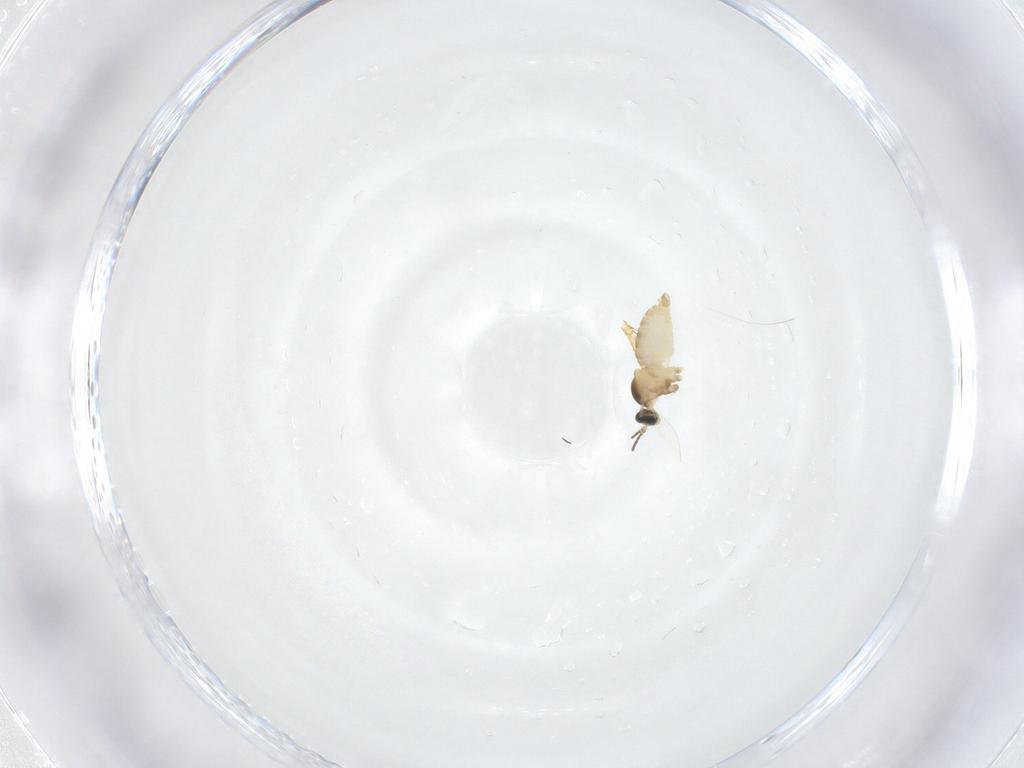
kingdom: Animalia
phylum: Arthropoda
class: Insecta
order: Diptera
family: Cecidomyiidae
